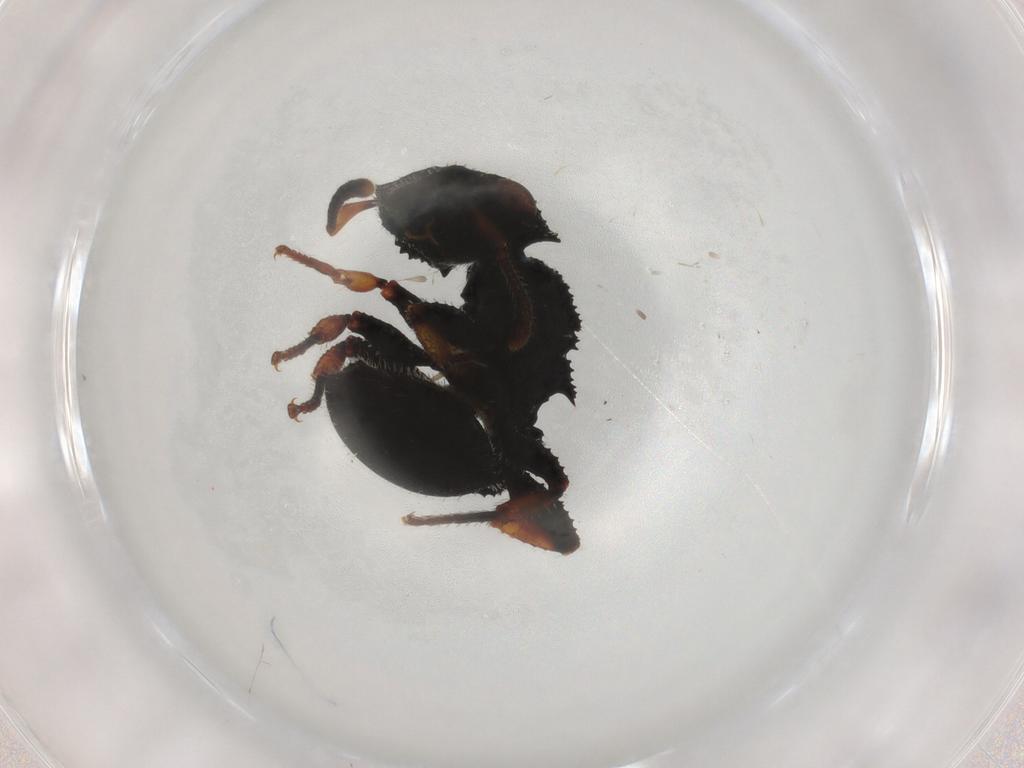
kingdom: Animalia
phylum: Arthropoda
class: Insecta
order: Hymenoptera
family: Formicidae
